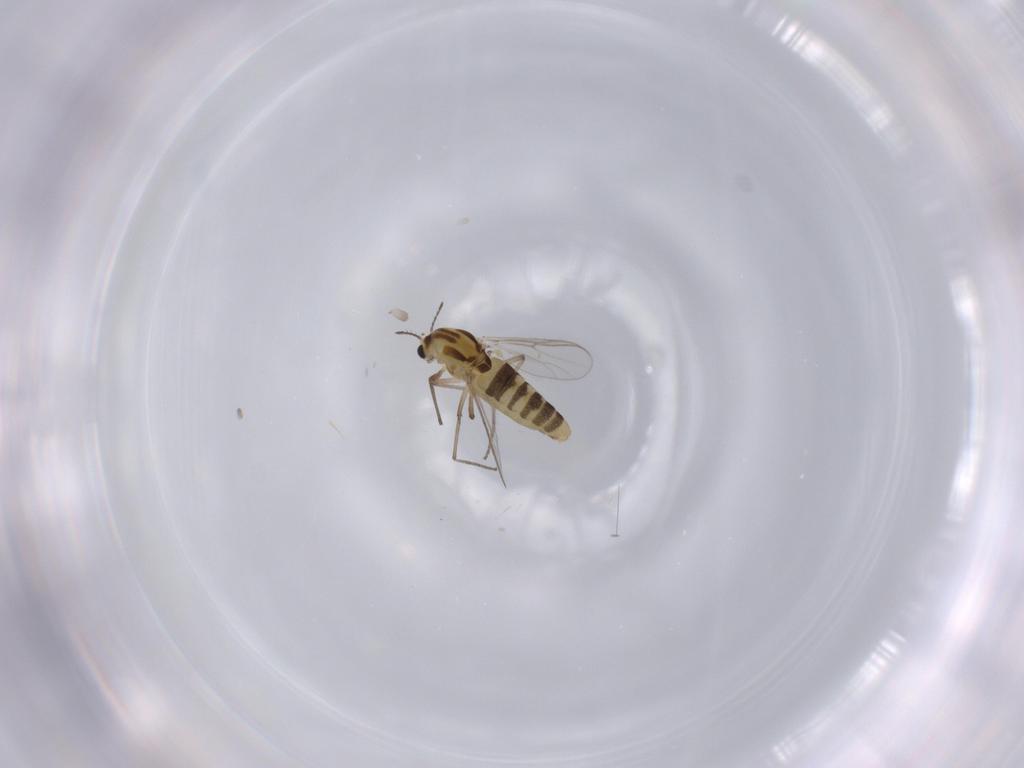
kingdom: Animalia
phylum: Arthropoda
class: Insecta
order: Diptera
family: Chironomidae
